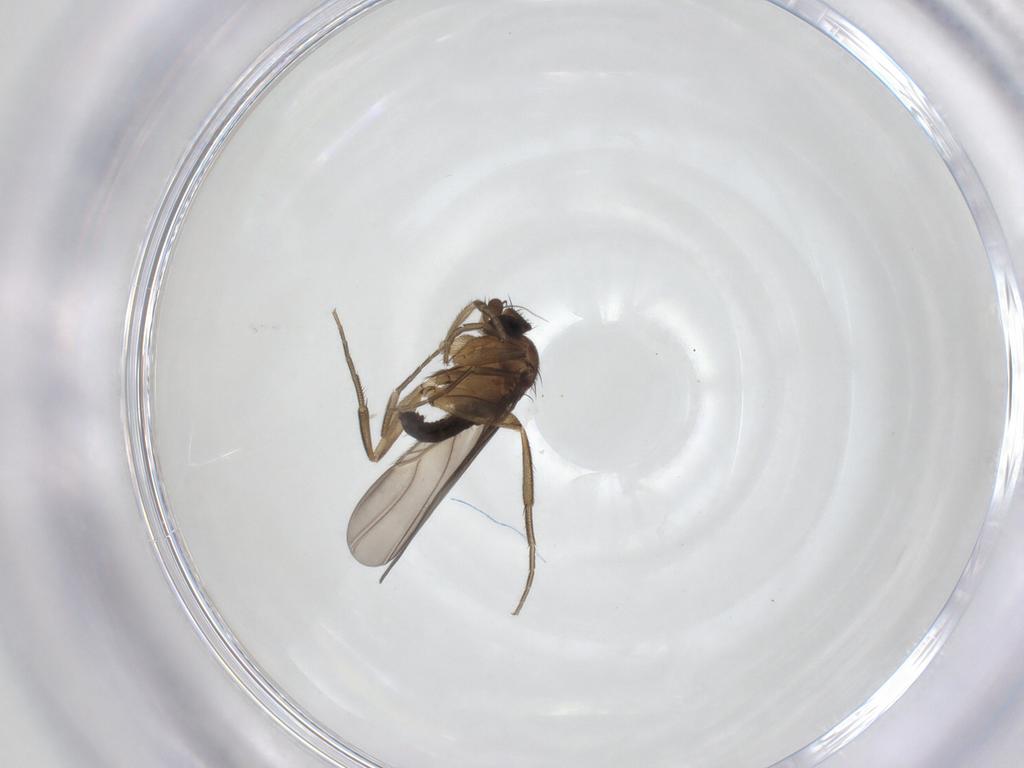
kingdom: Animalia
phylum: Arthropoda
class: Insecta
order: Diptera
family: Phoridae
